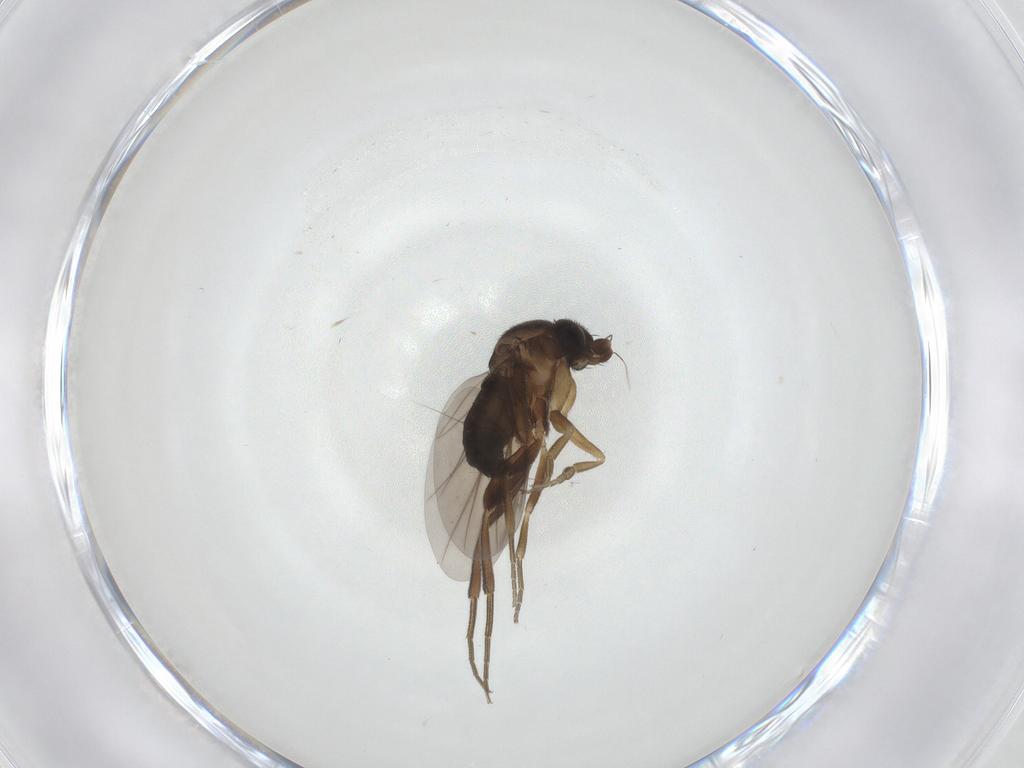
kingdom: Animalia
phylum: Arthropoda
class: Insecta
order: Diptera
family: Phoridae
